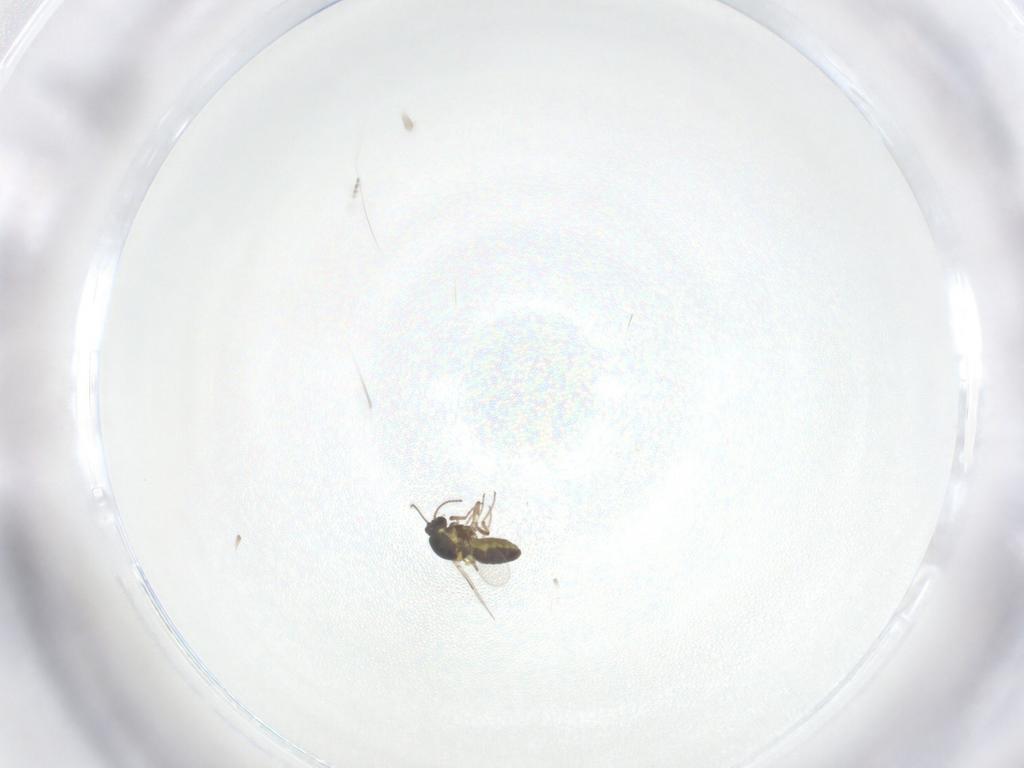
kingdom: Animalia
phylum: Arthropoda
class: Insecta
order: Diptera
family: Ceratopogonidae
